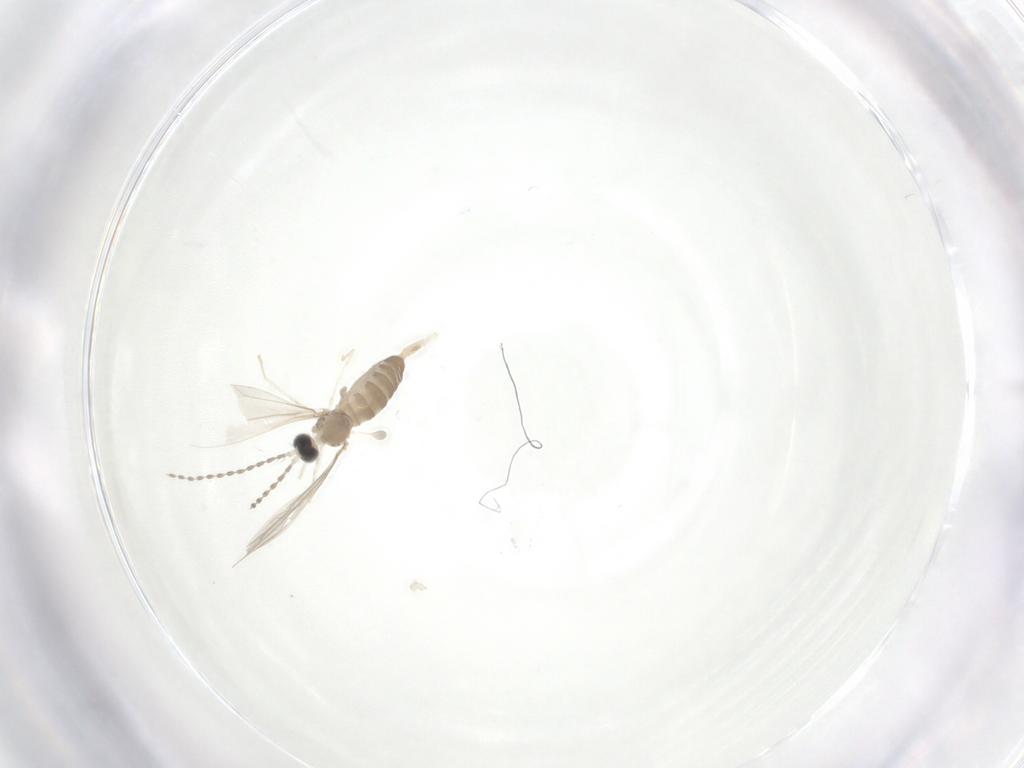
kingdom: Animalia
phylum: Arthropoda
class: Insecta
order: Diptera
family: Cecidomyiidae
